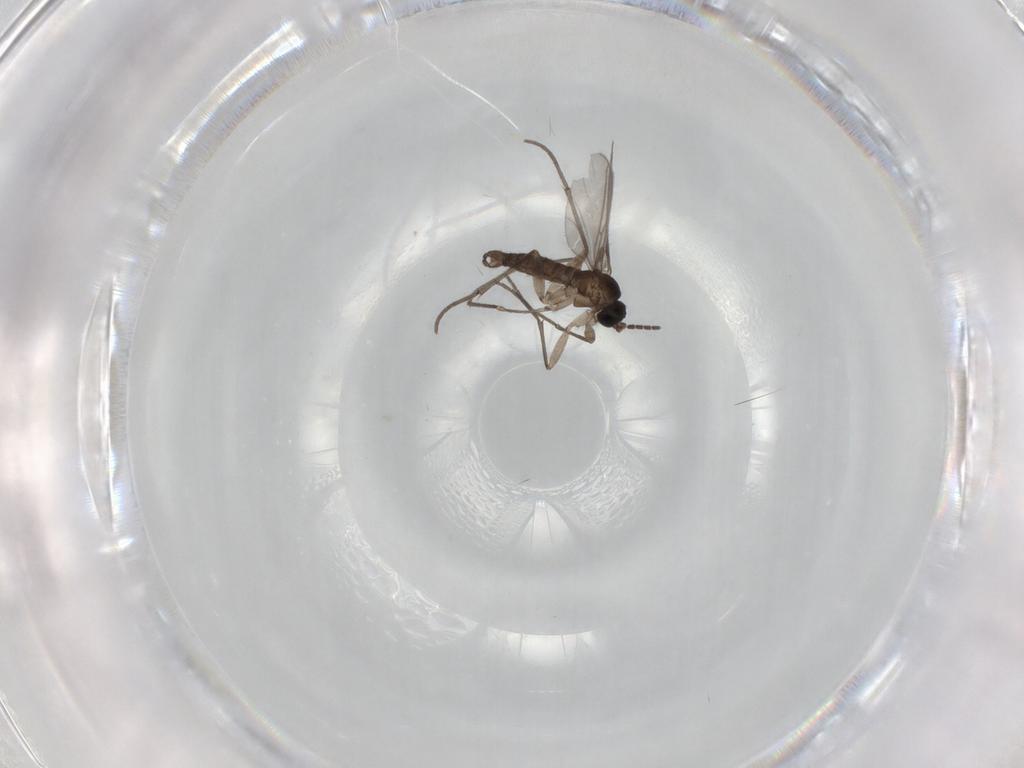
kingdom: Animalia
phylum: Arthropoda
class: Insecta
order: Diptera
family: Sciaridae
